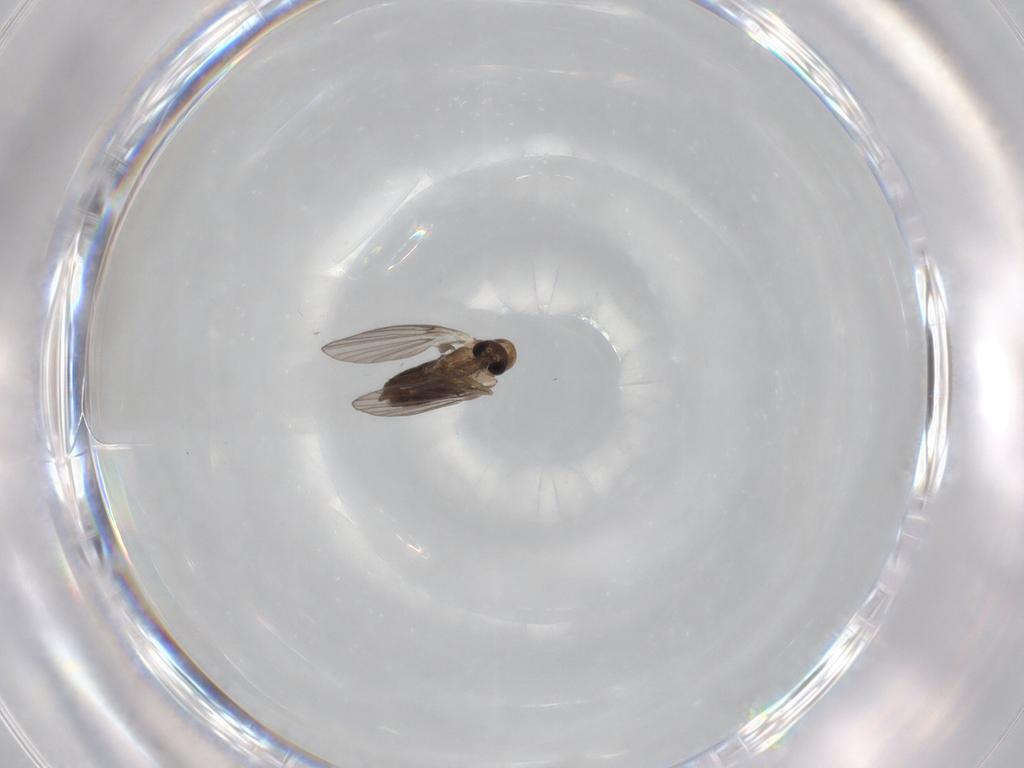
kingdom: Animalia
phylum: Arthropoda
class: Insecta
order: Diptera
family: Psychodidae
